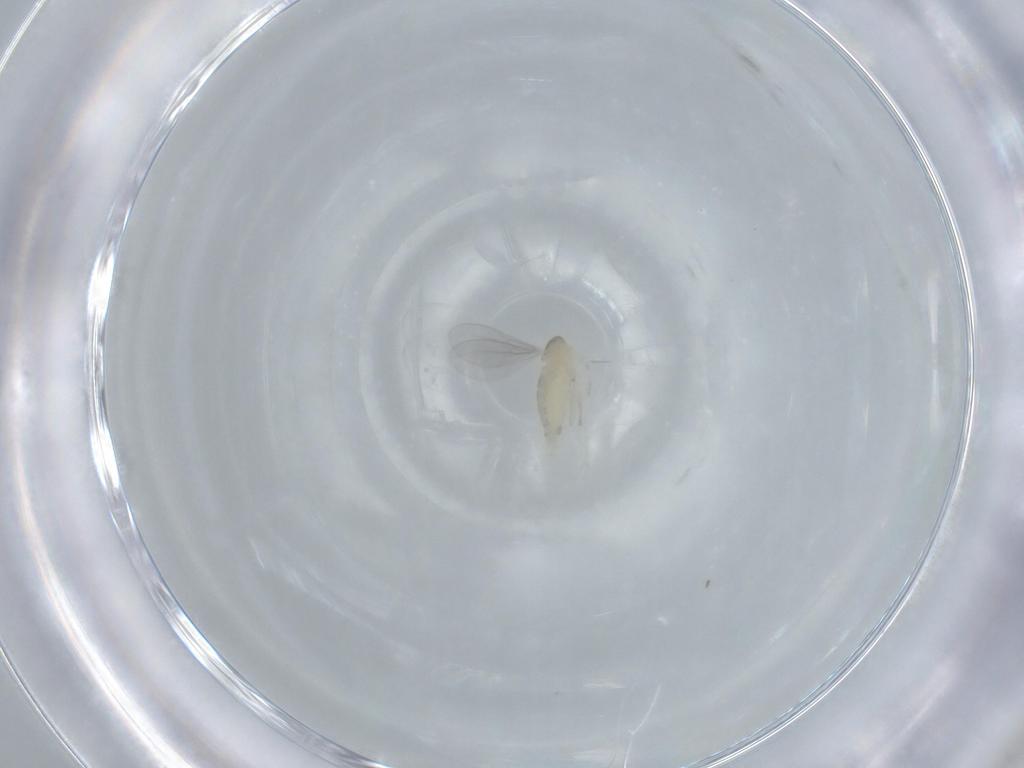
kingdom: Animalia
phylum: Arthropoda
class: Insecta
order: Diptera
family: Cecidomyiidae
